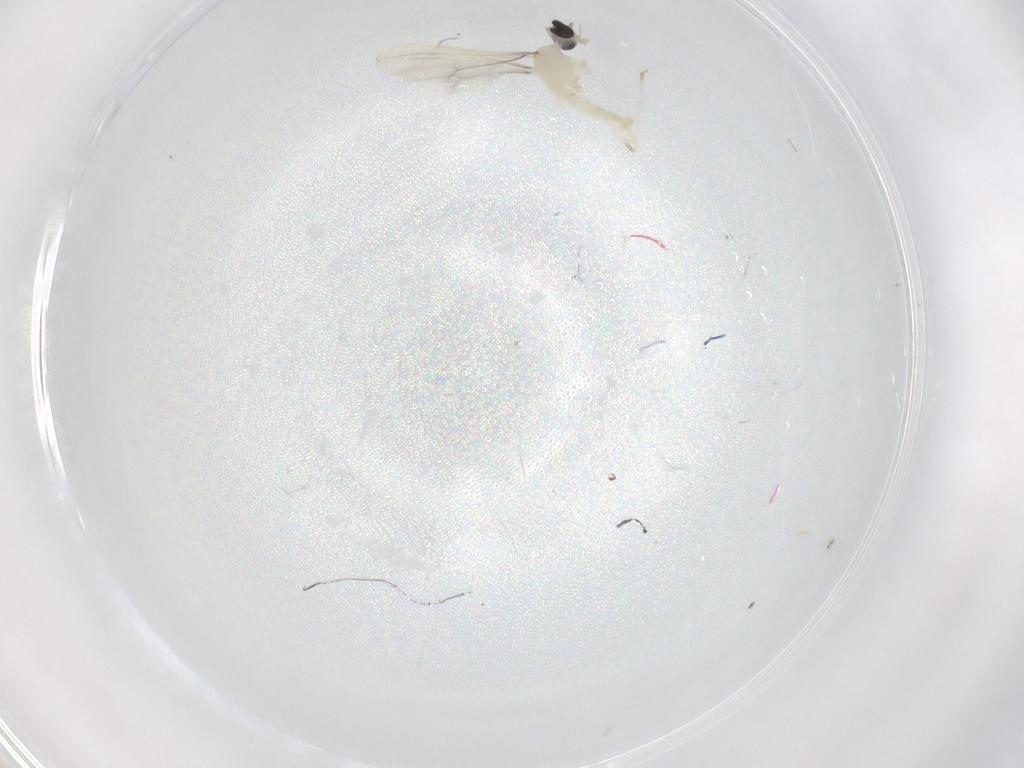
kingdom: Animalia
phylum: Arthropoda
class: Insecta
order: Diptera
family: Cecidomyiidae
